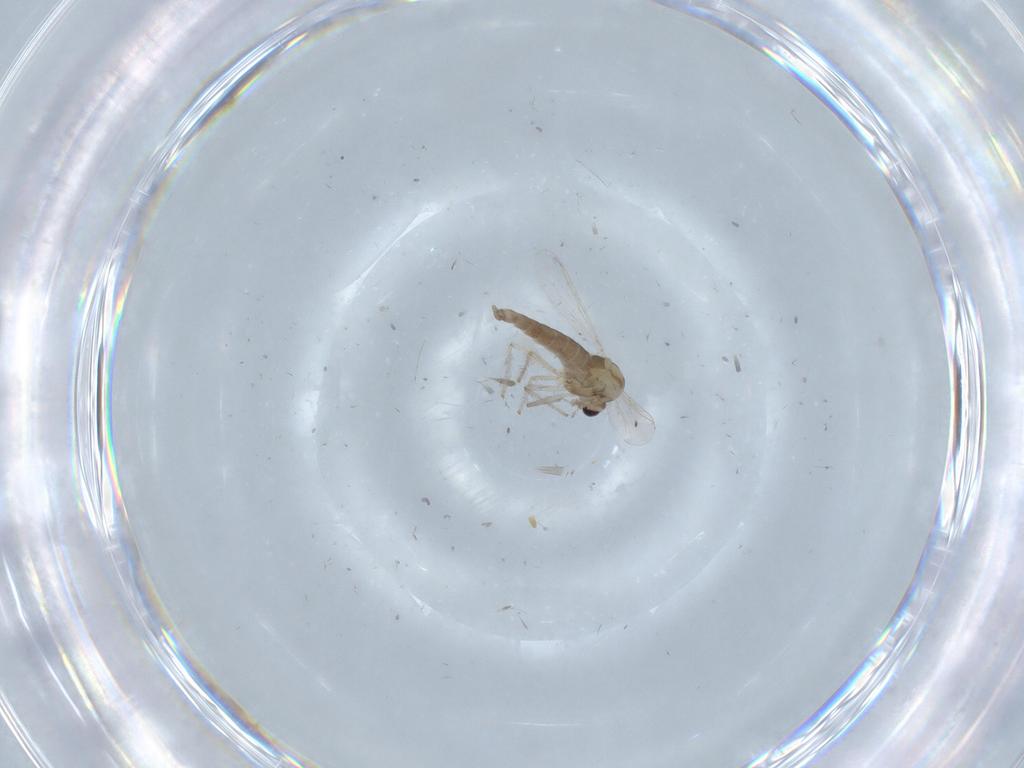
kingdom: Animalia
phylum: Arthropoda
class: Insecta
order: Diptera
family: Chironomidae
